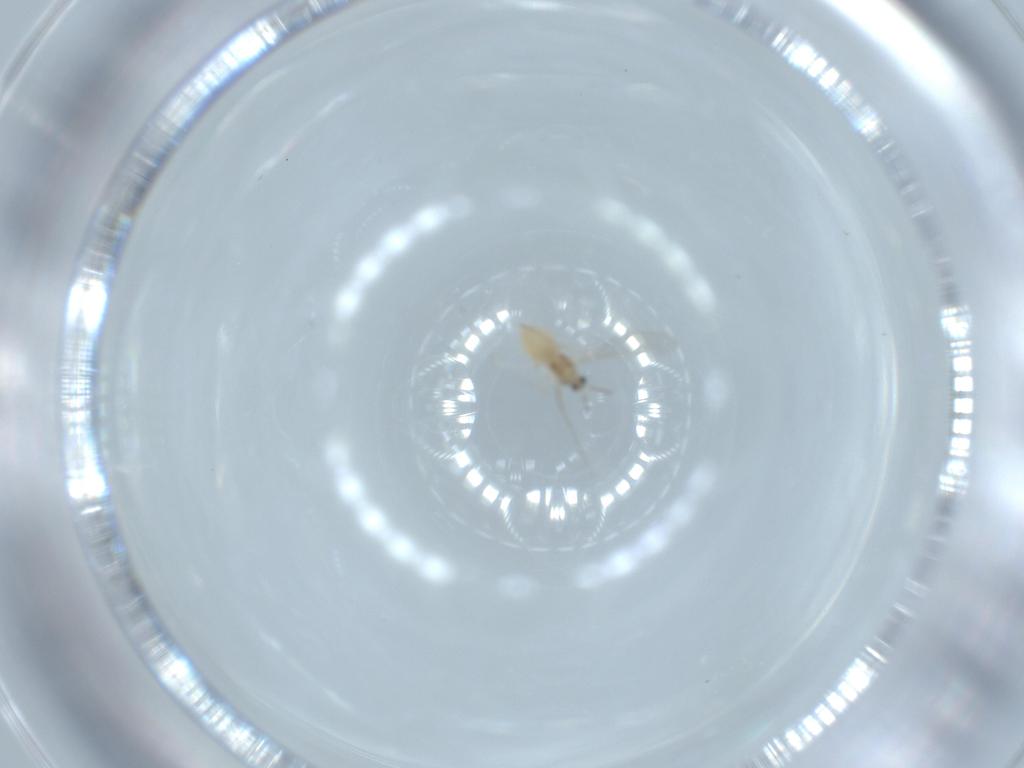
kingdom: Animalia
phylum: Arthropoda
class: Insecta
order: Diptera
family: Cecidomyiidae
